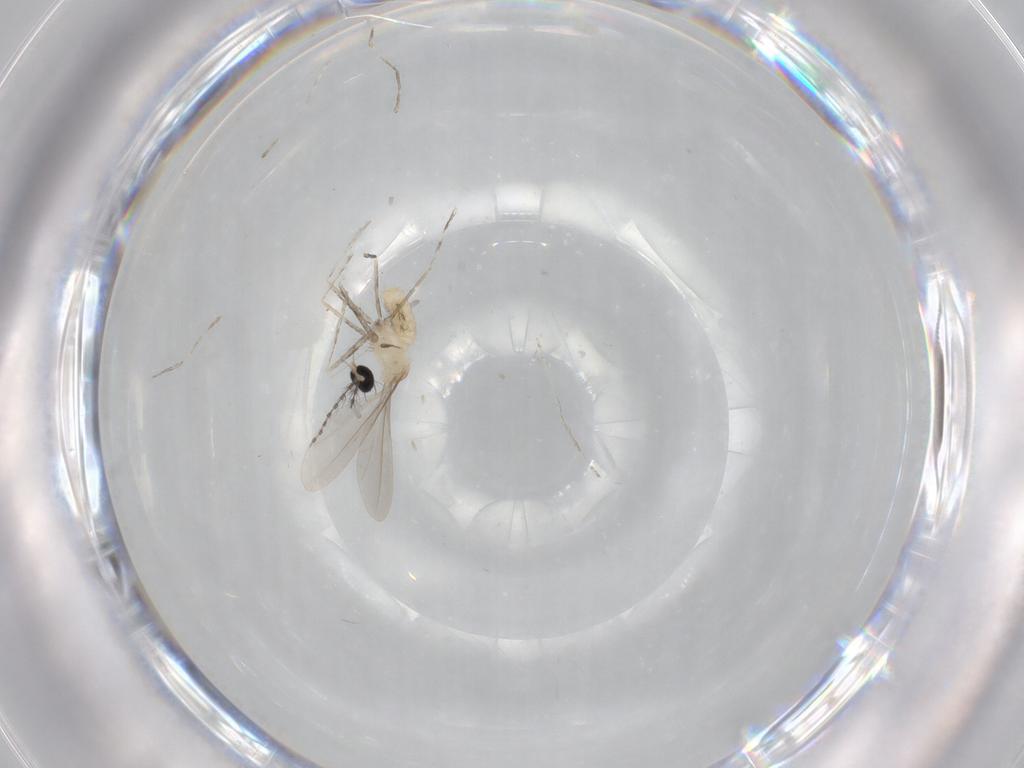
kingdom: Animalia
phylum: Arthropoda
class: Insecta
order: Diptera
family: Cecidomyiidae
